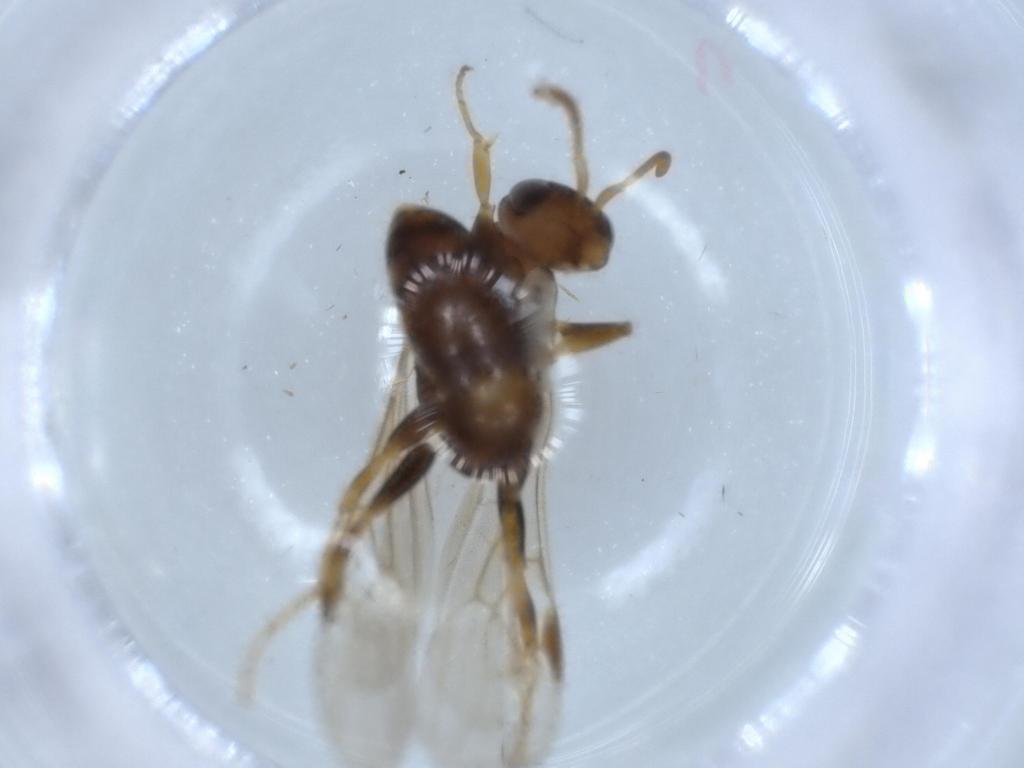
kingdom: Animalia
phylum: Arthropoda
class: Insecta
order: Hymenoptera
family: Formicidae
